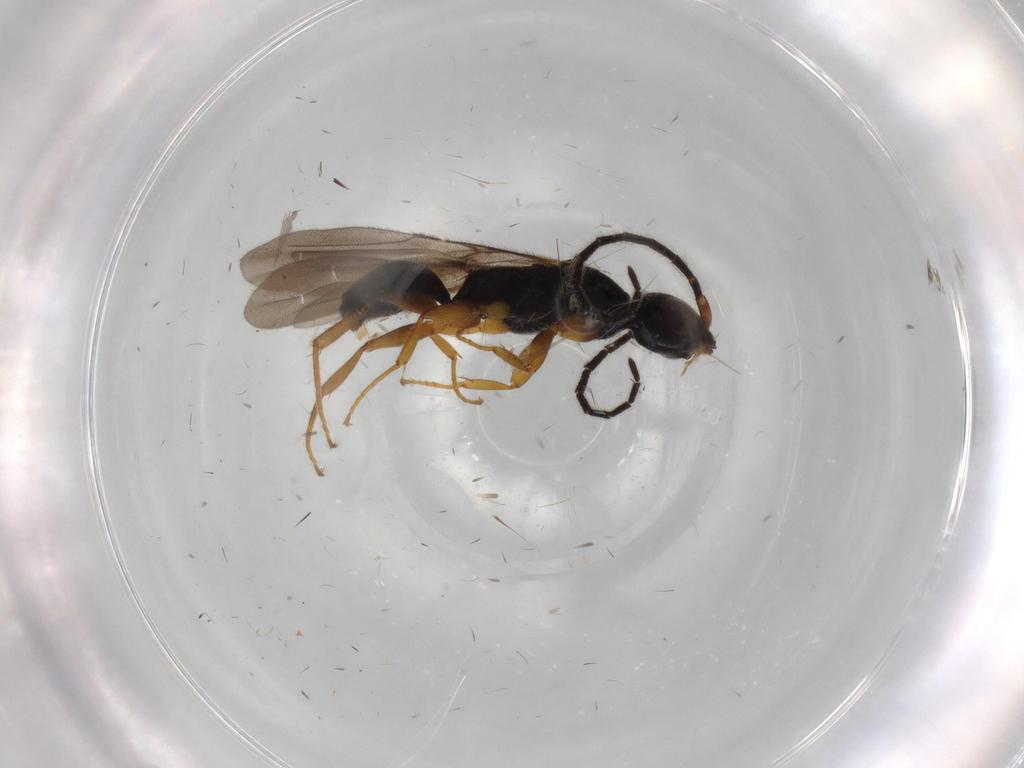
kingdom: Animalia
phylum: Arthropoda
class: Insecta
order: Hymenoptera
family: Bethylidae
